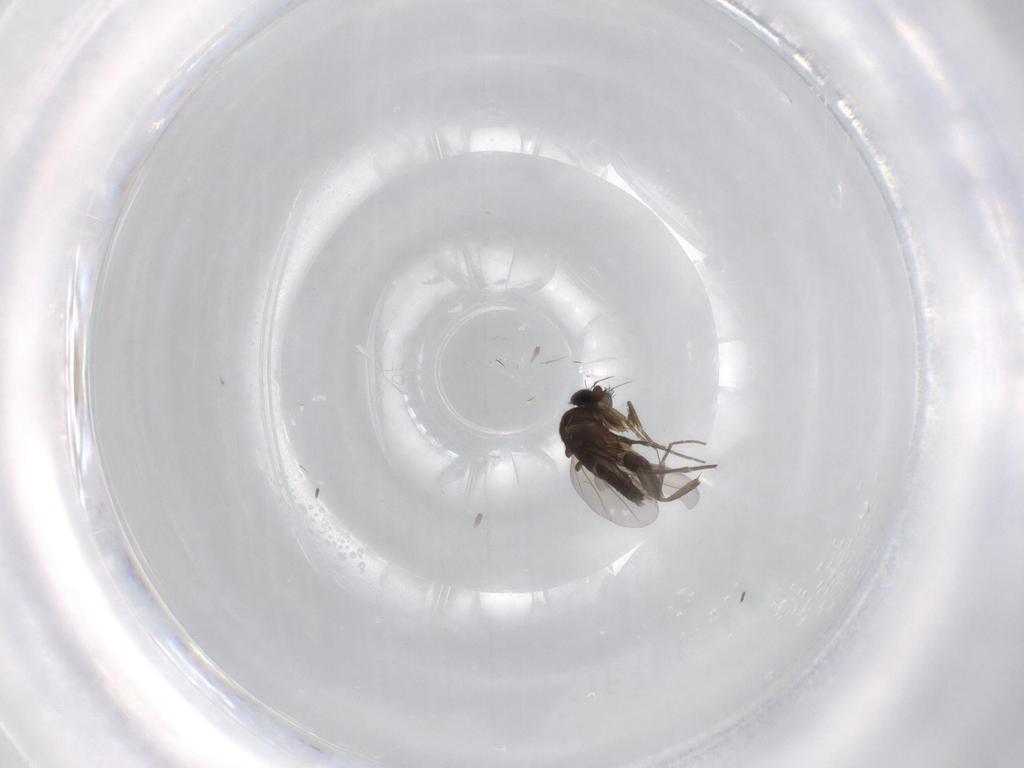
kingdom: Animalia
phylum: Arthropoda
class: Insecta
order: Diptera
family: Phoridae
